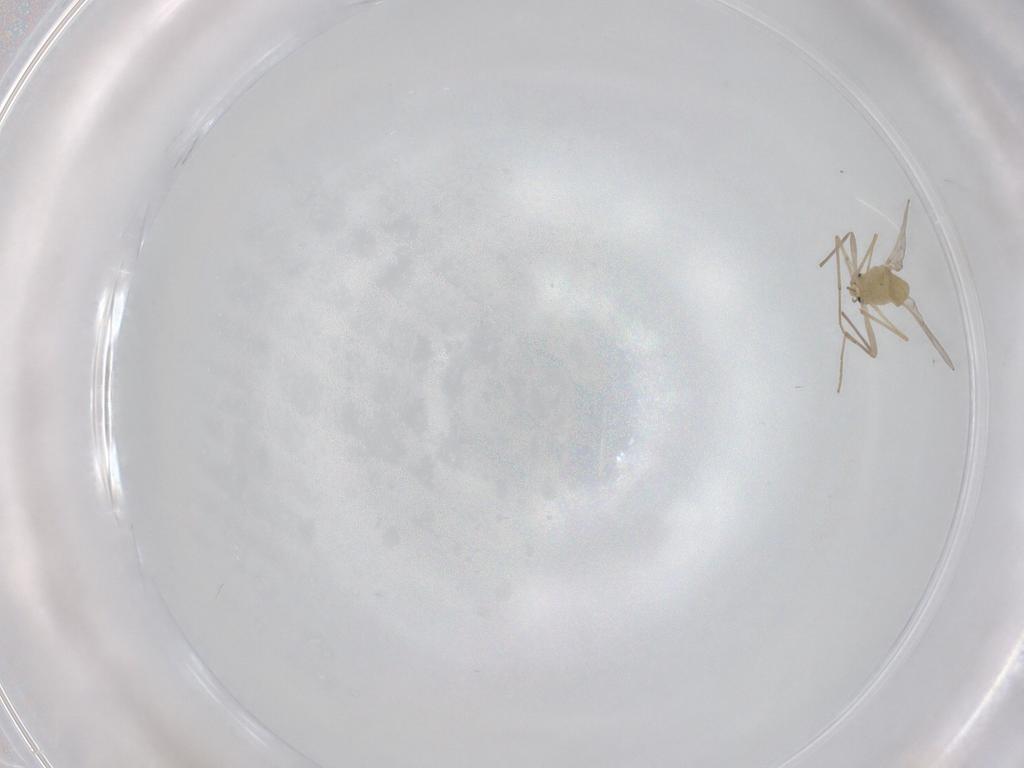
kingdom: Animalia
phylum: Arthropoda
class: Insecta
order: Diptera
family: Chironomidae
